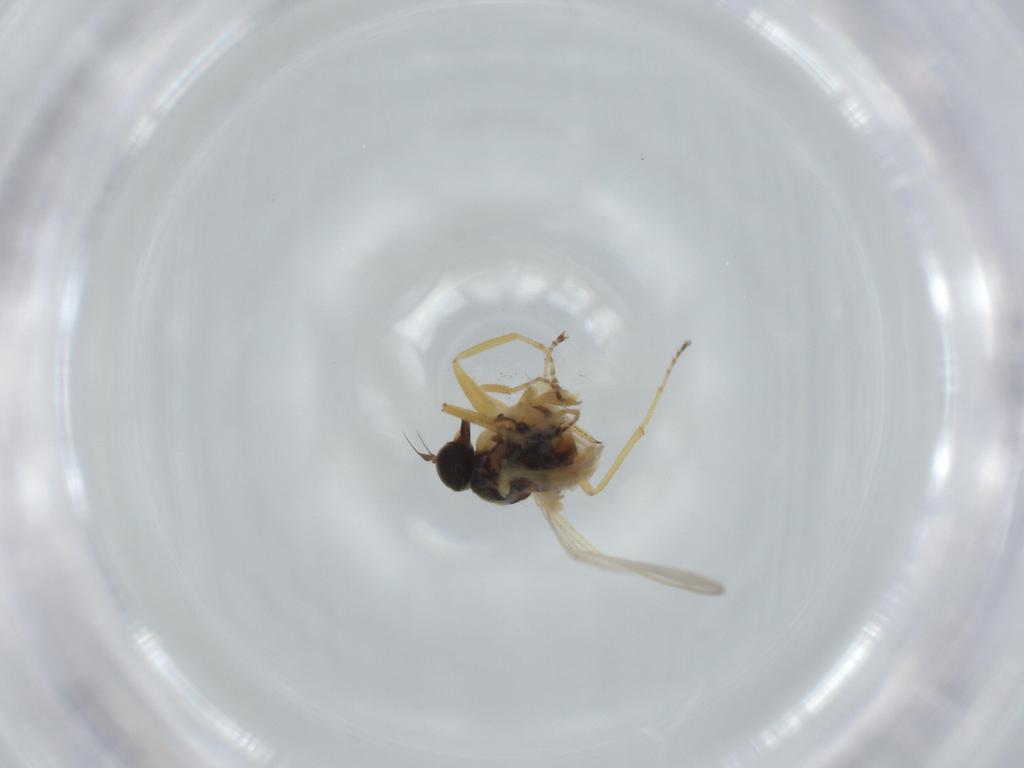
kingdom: Animalia
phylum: Arthropoda
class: Insecta
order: Diptera
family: Hybotidae
